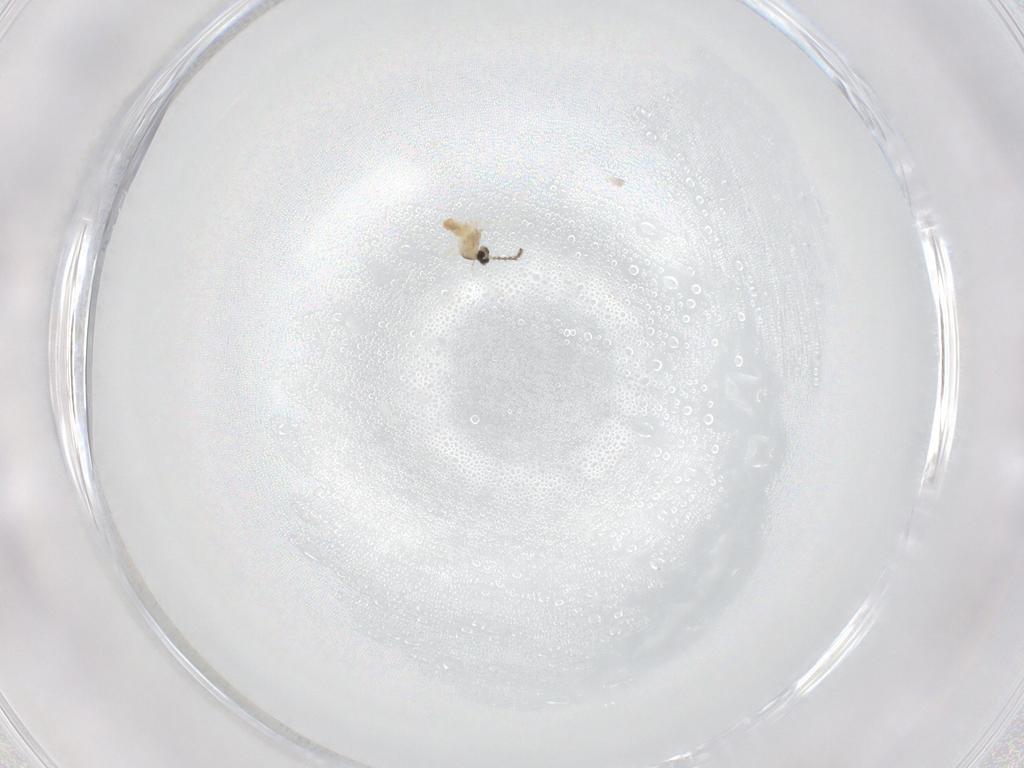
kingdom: Animalia
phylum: Arthropoda
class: Insecta
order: Diptera
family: Cecidomyiidae
